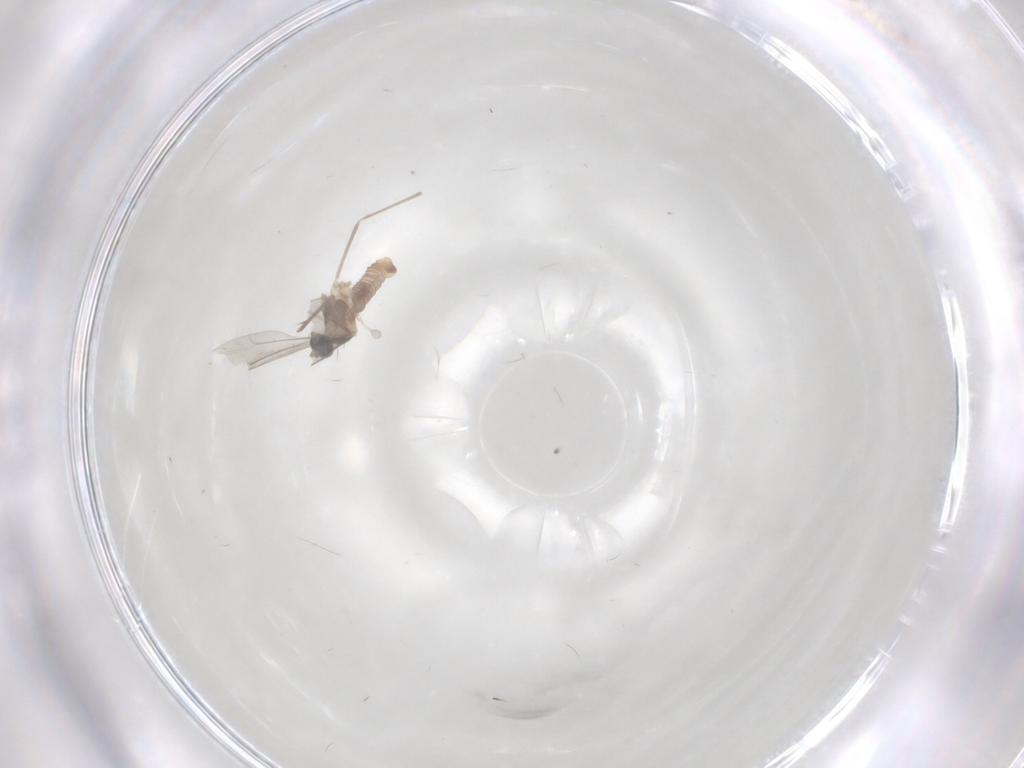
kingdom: Animalia
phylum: Arthropoda
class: Insecta
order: Diptera
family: Cecidomyiidae
